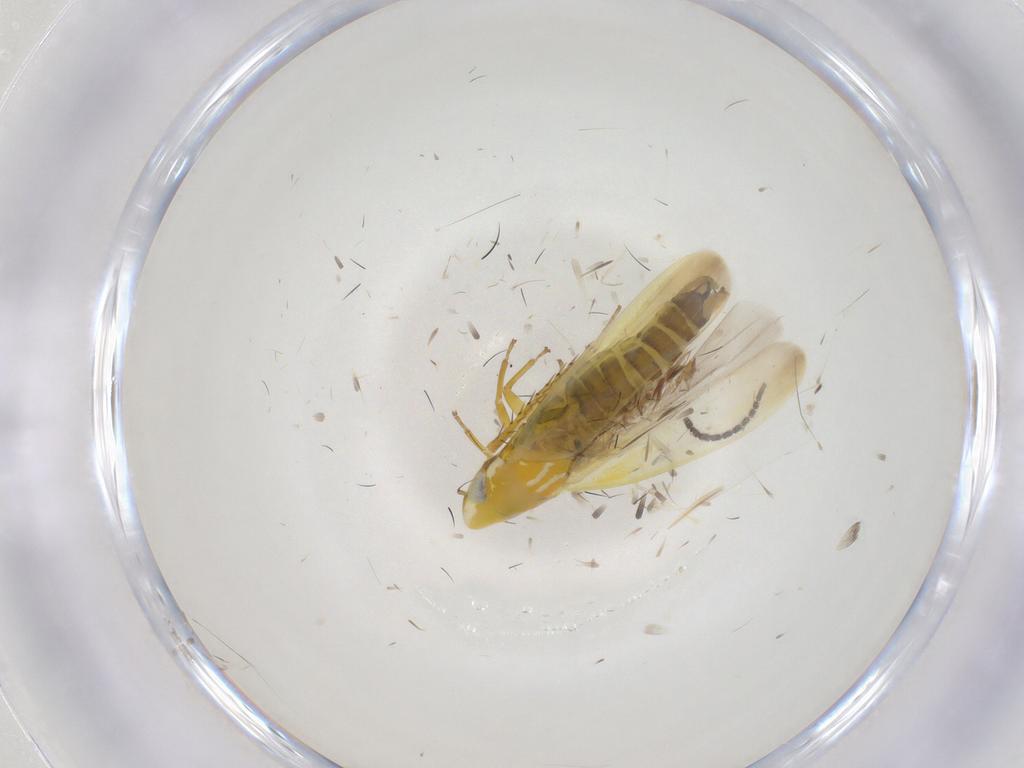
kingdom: Animalia
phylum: Arthropoda
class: Insecta
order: Hemiptera
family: Cicadellidae
